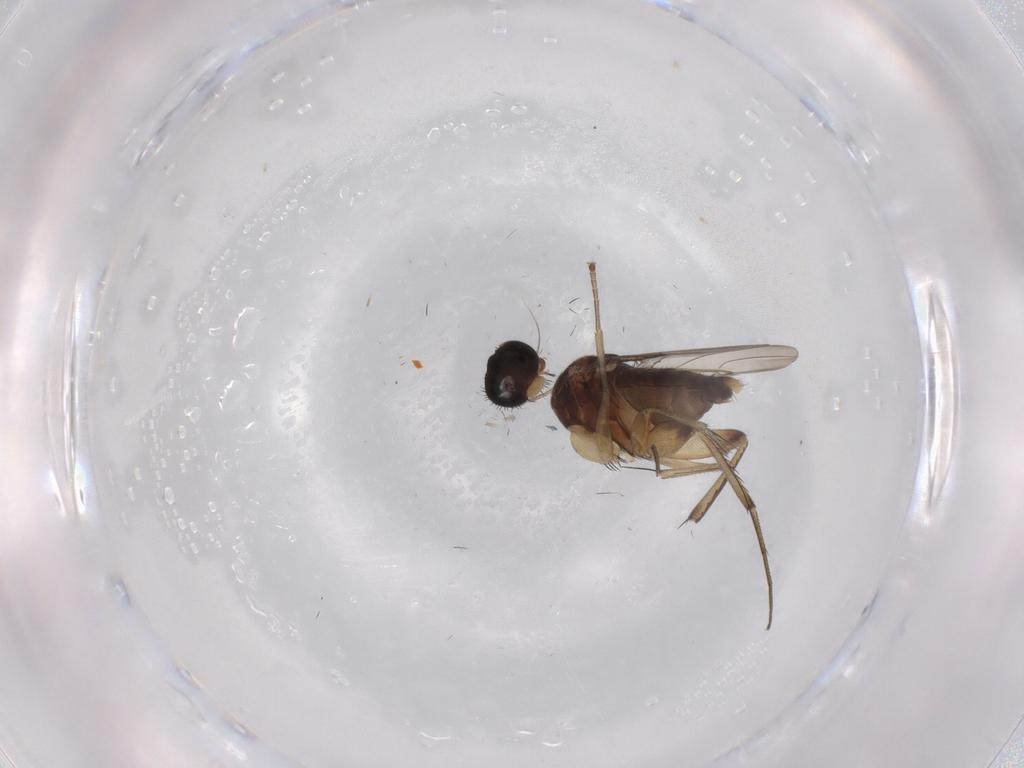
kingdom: Animalia
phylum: Arthropoda
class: Insecta
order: Diptera
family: Phoridae
